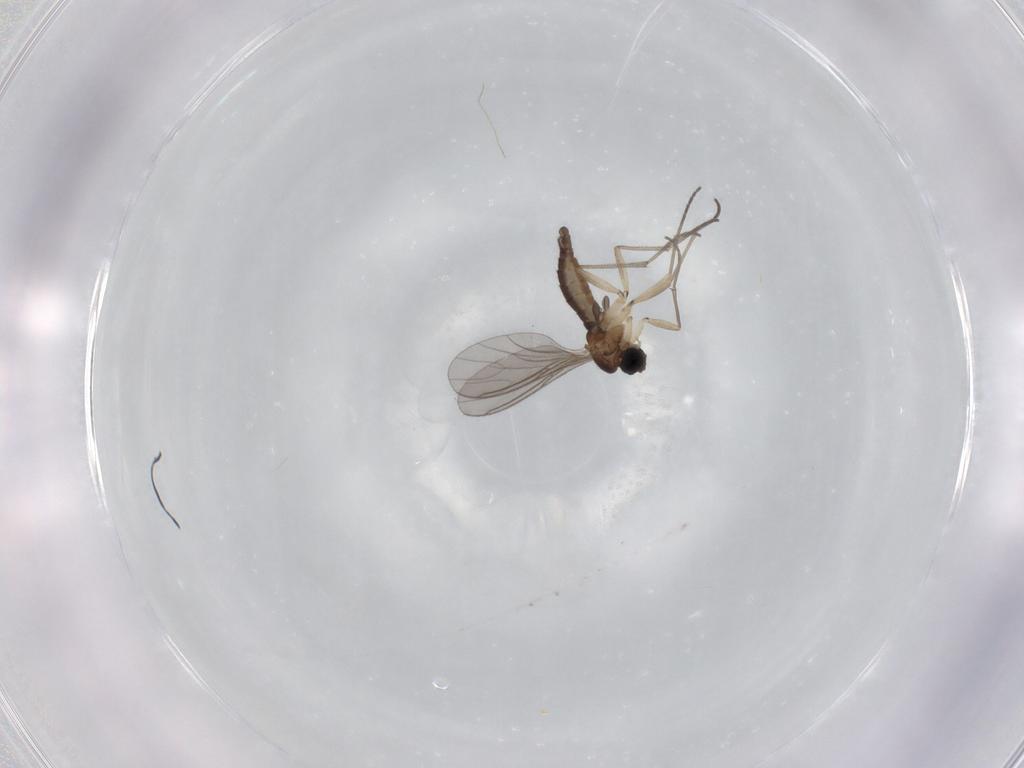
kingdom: Animalia
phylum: Arthropoda
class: Insecta
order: Diptera
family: Sciaridae
